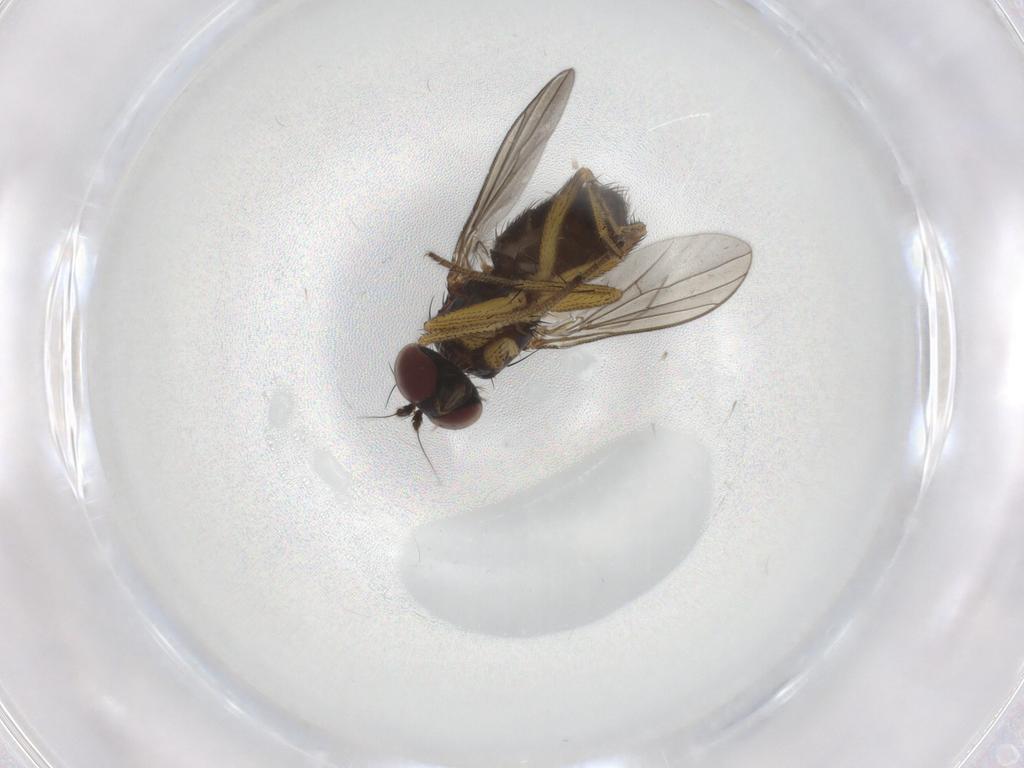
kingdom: Animalia
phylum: Arthropoda
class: Insecta
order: Diptera
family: Dolichopodidae
